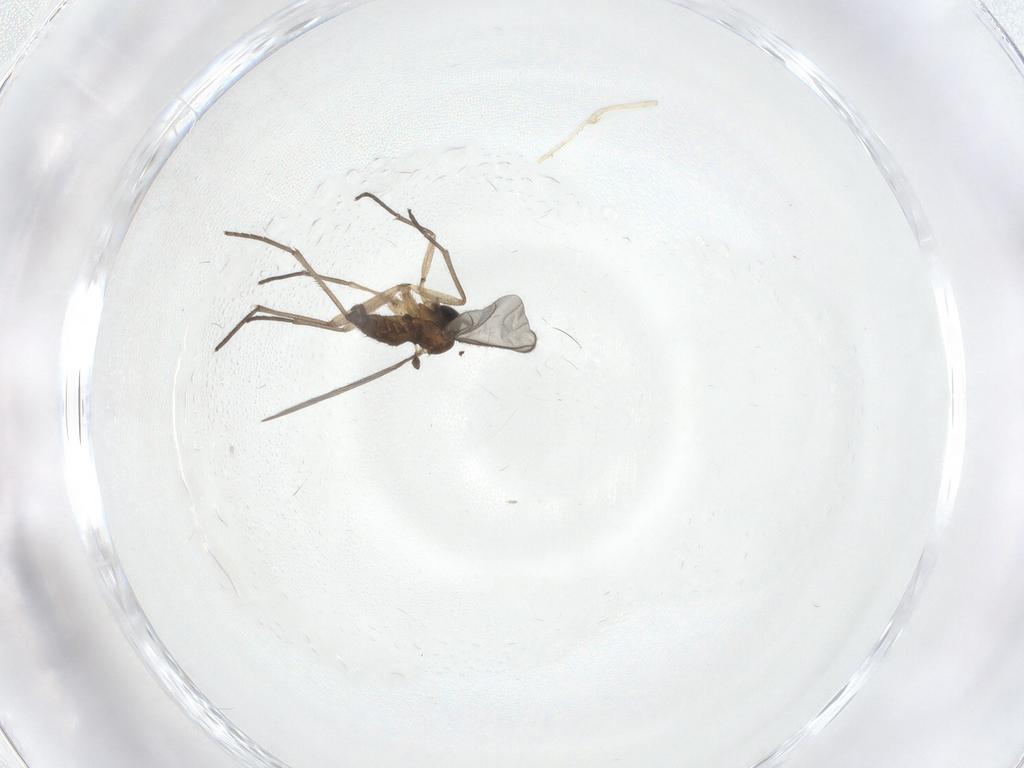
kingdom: Animalia
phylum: Arthropoda
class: Insecta
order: Diptera
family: Sciaridae
